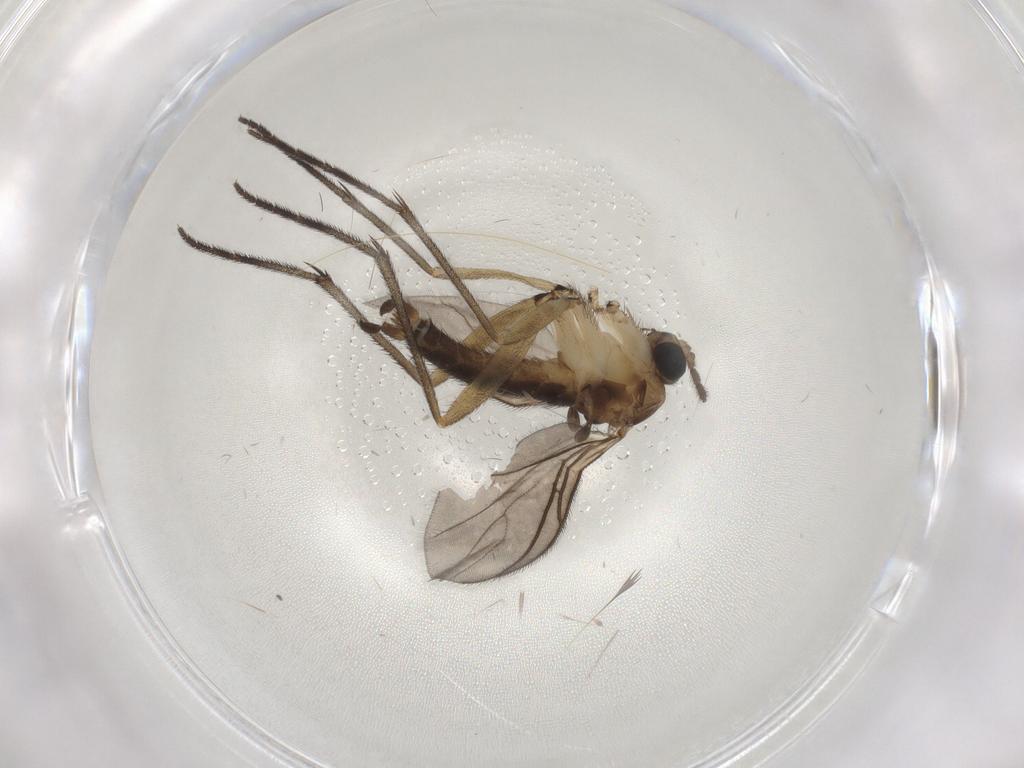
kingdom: Animalia
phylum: Arthropoda
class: Insecta
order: Diptera
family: Sciaridae
